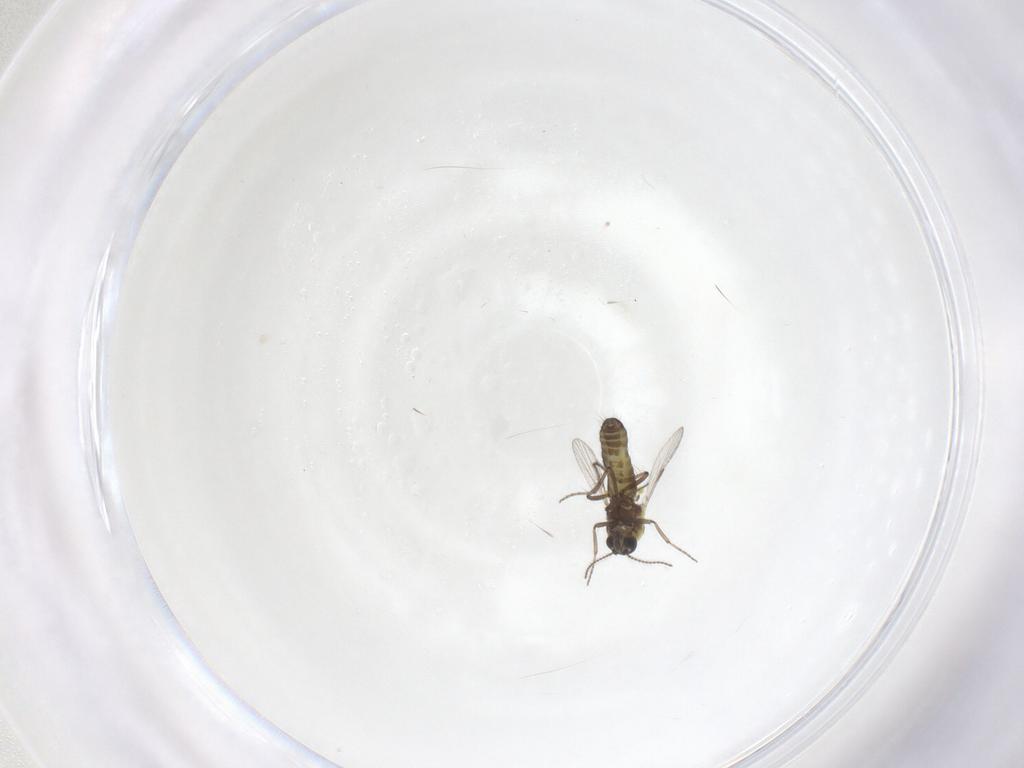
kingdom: Animalia
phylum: Arthropoda
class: Insecta
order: Diptera
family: Ceratopogonidae
